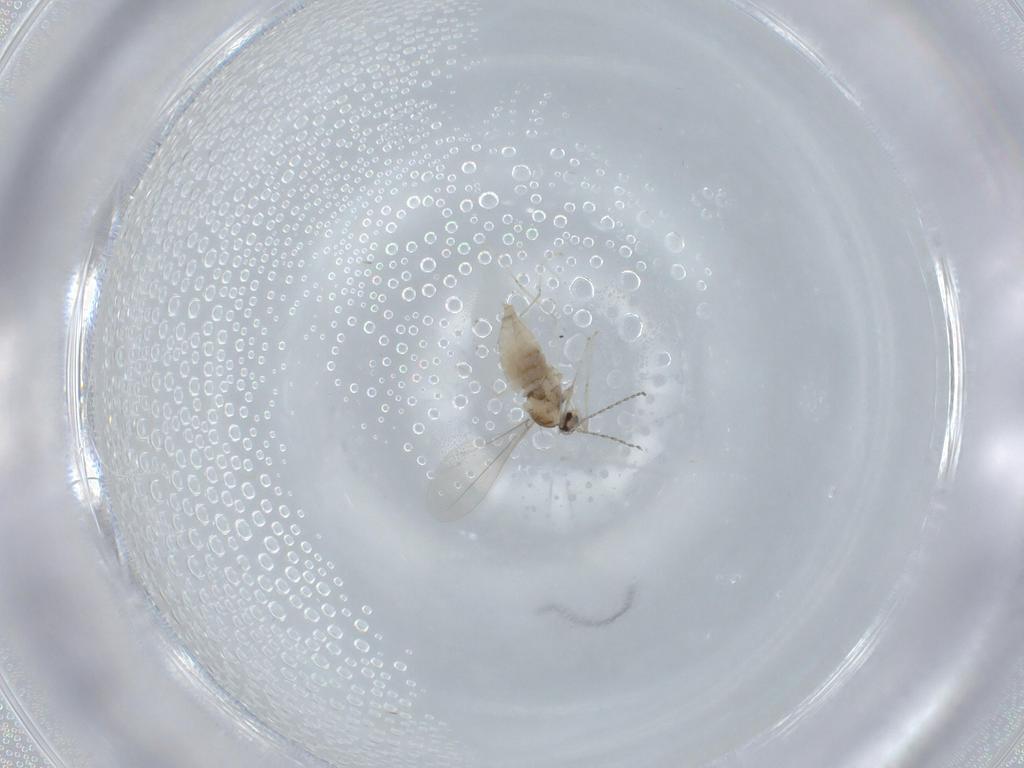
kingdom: Animalia
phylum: Arthropoda
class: Insecta
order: Diptera
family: Cecidomyiidae
